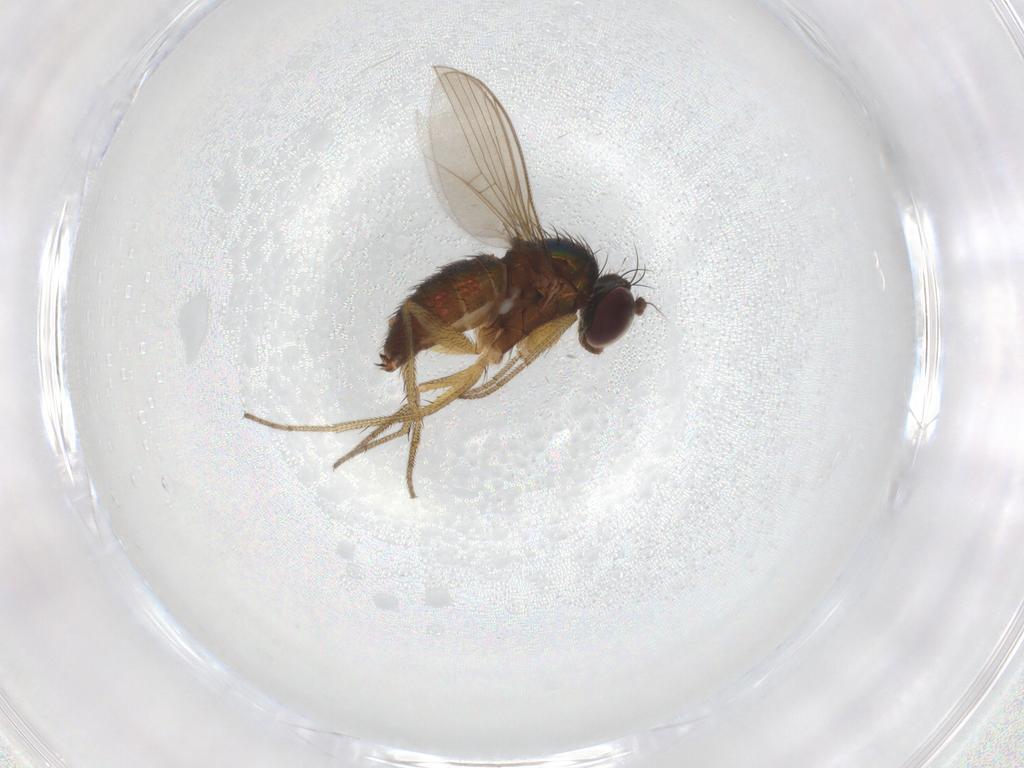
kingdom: Animalia
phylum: Arthropoda
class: Insecta
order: Diptera
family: Dolichopodidae
